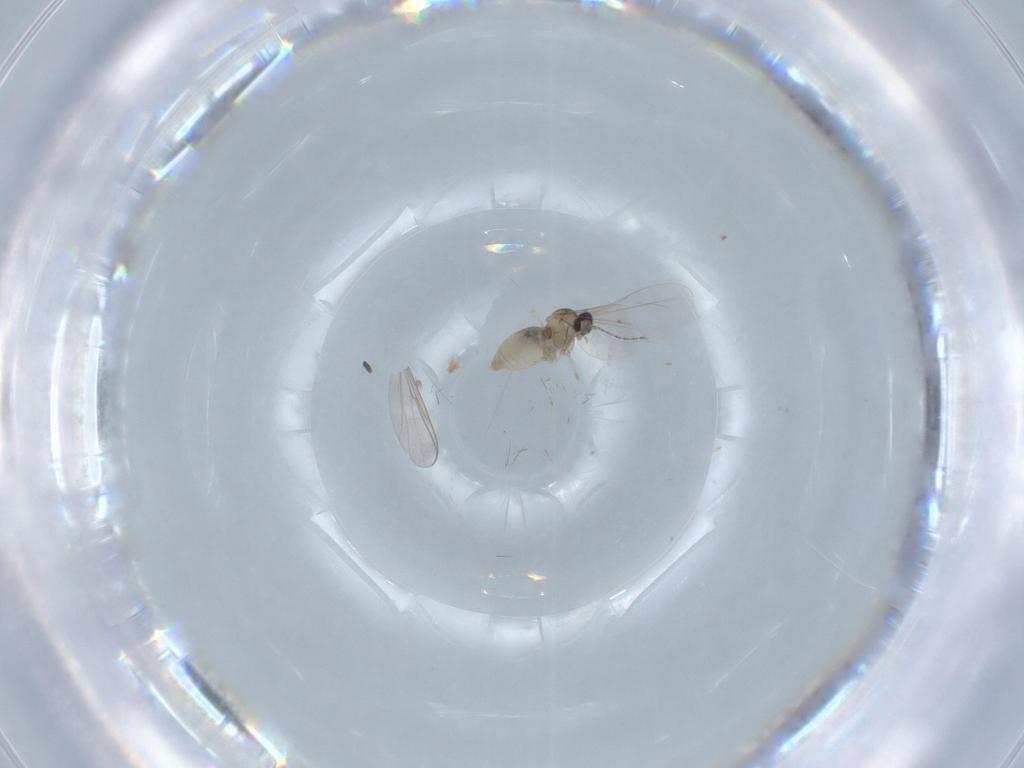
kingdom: Animalia
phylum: Arthropoda
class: Insecta
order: Diptera
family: Cecidomyiidae
